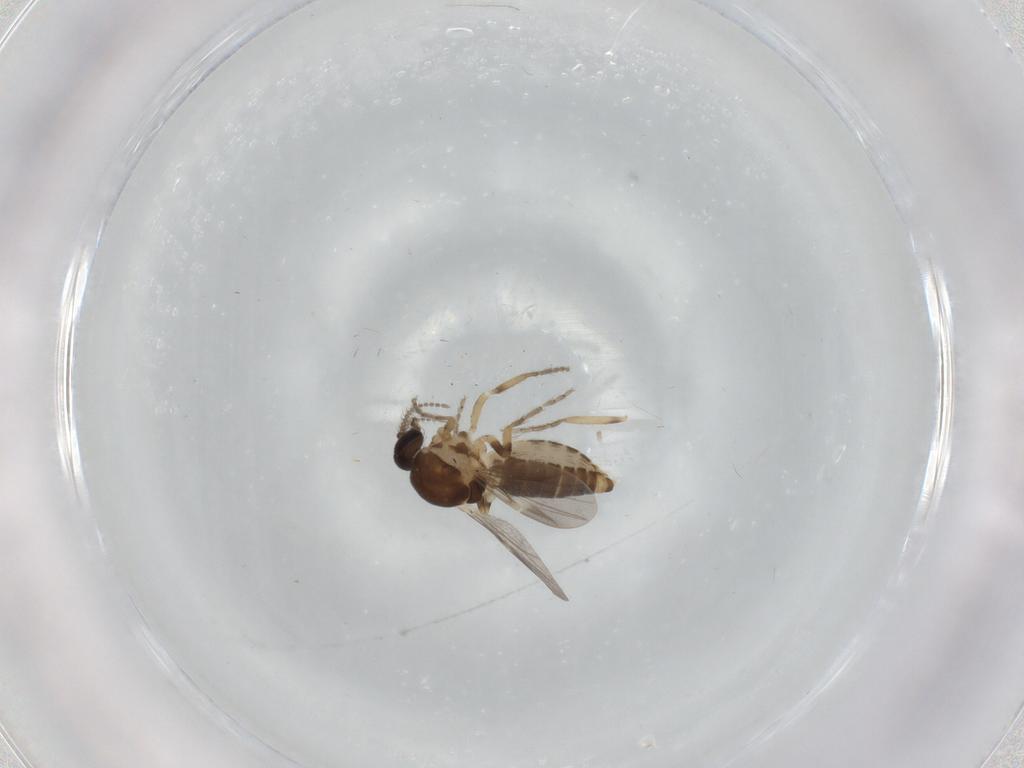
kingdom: Animalia
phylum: Arthropoda
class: Insecta
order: Diptera
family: Ceratopogonidae
